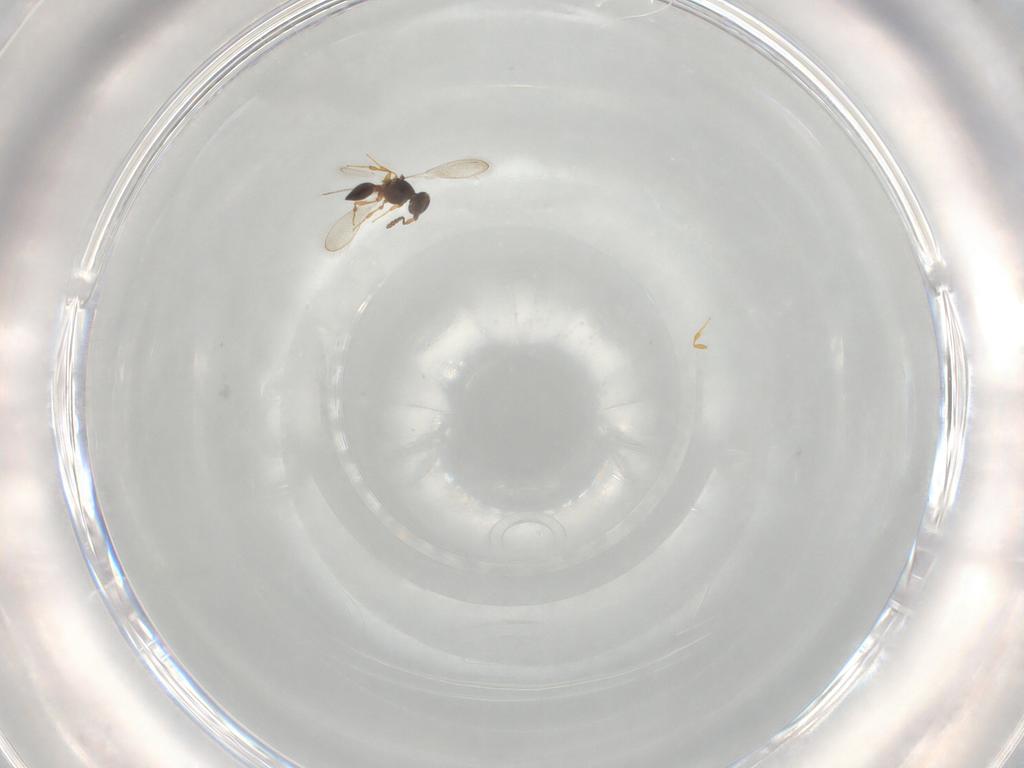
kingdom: Animalia
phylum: Arthropoda
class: Insecta
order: Hymenoptera
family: Platygastridae
